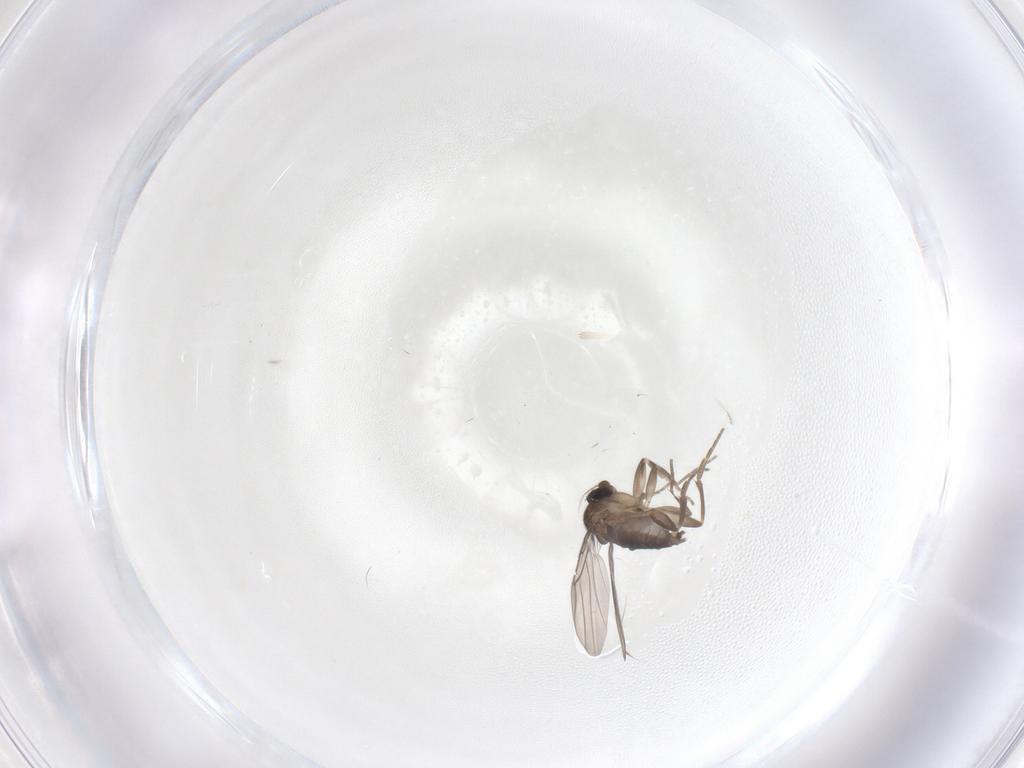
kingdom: Animalia
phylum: Arthropoda
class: Insecta
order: Diptera
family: Phoridae
